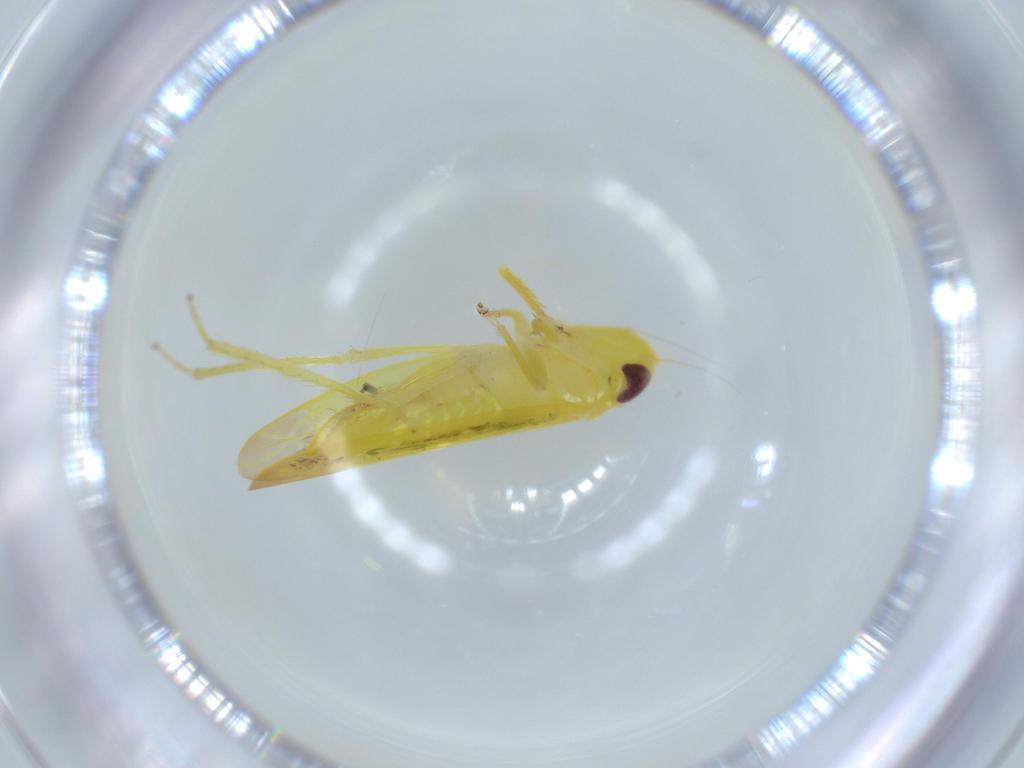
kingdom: Animalia
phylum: Arthropoda
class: Insecta
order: Hemiptera
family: Cicadellidae
